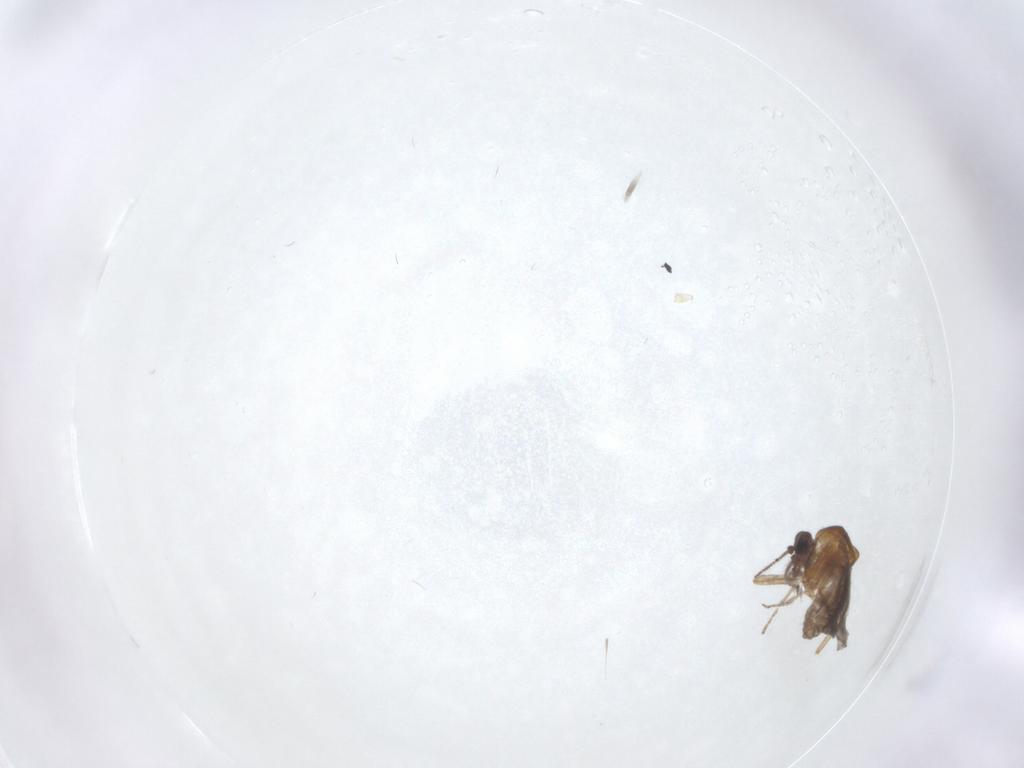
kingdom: Animalia
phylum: Arthropoda
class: Insecta
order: Diptera
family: Ceratopogonidae
